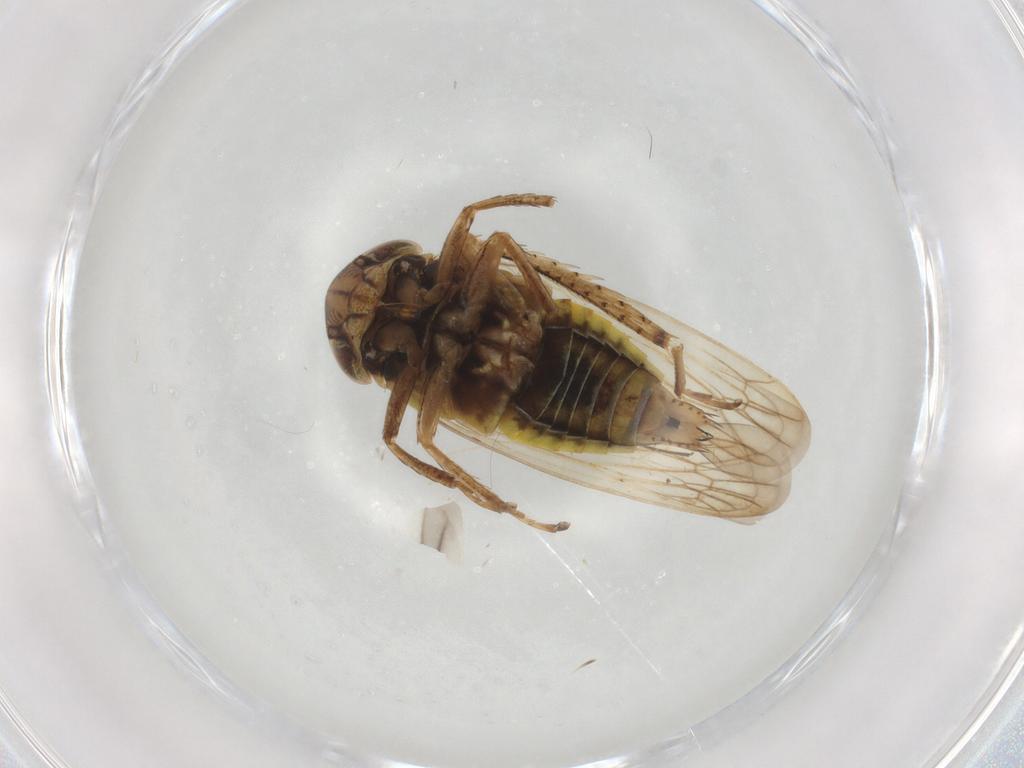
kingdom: Animalia
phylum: Arthropoda
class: Insecta
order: Hemiptera
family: Cicadellidae
